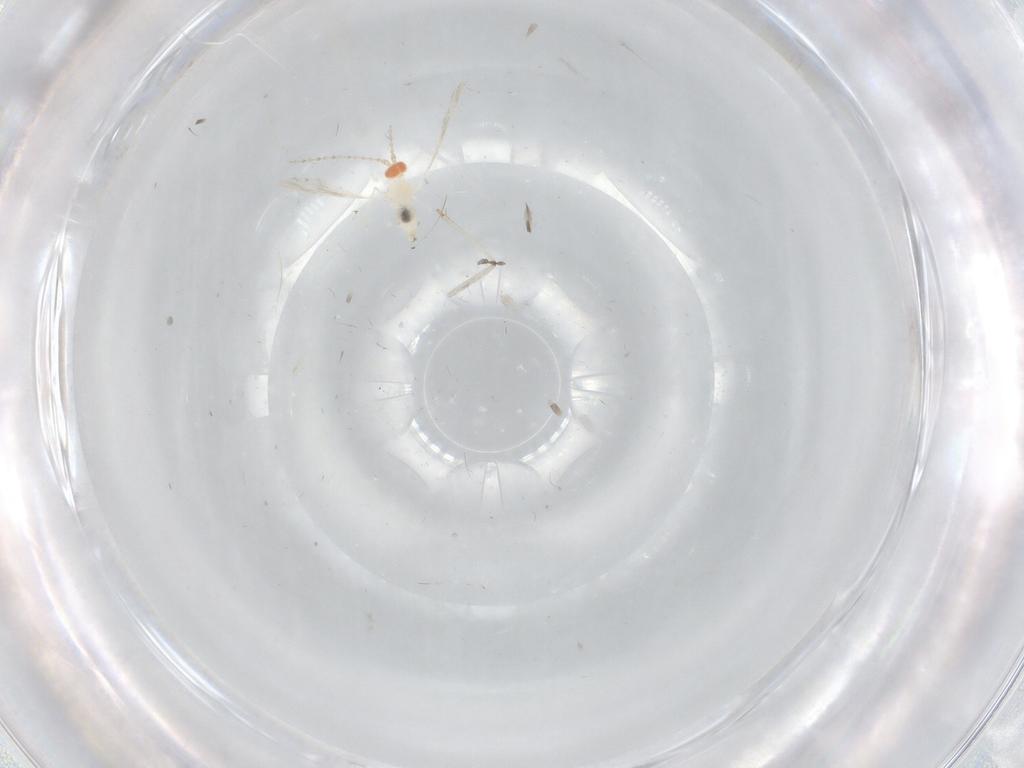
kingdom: Animalia
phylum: Arthropoda
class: Insecta
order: Diptera
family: Cecidomyiidae
